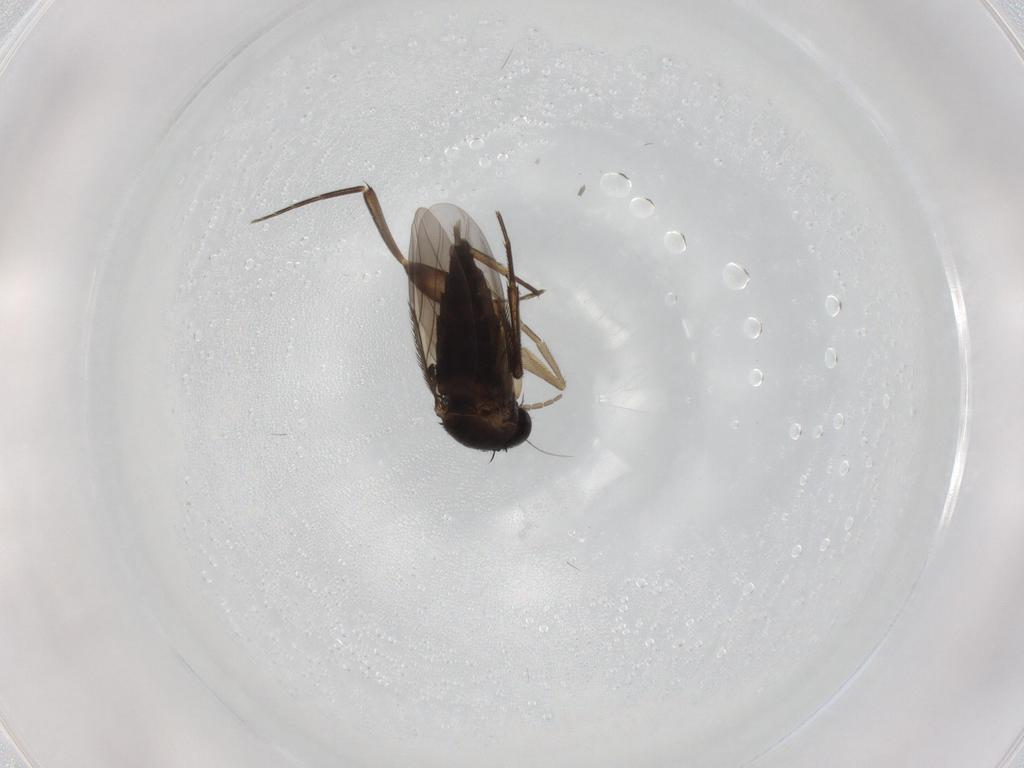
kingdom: Animalia
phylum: Arthropoda
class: Insecta
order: Diptera
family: Phoridae
